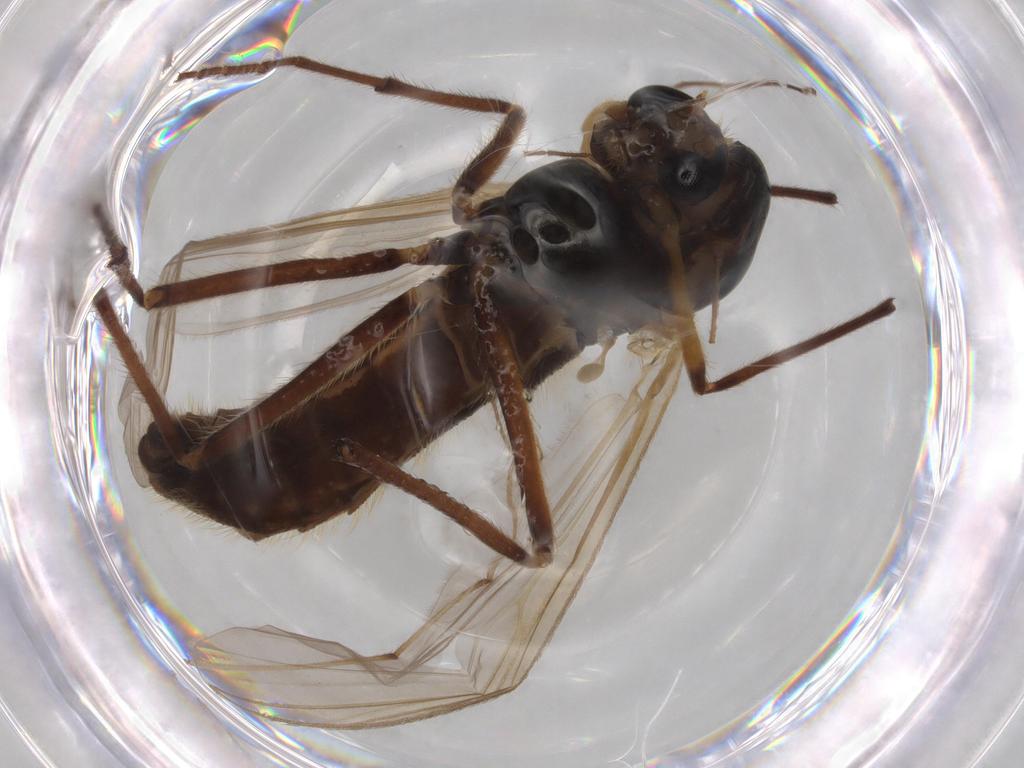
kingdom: Animalia
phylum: Arthropoda
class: Insecta
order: Diptera
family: Chironomidae
